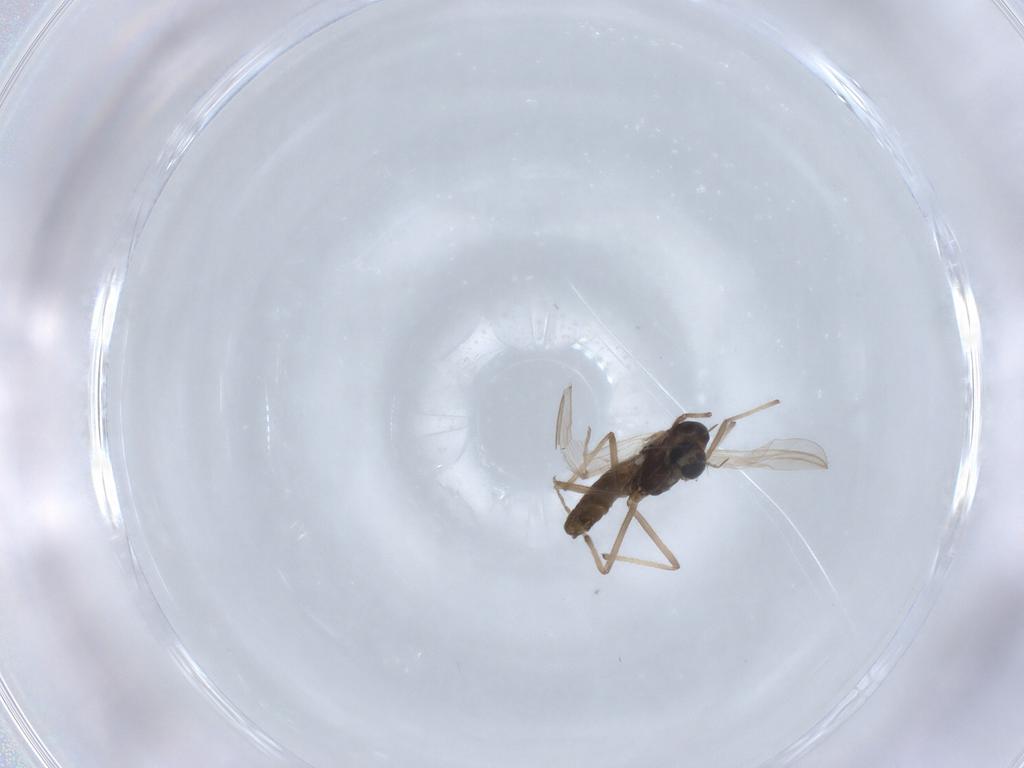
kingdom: Animalia
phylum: Arthropoda
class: Insecta
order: Diptera
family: Chironomidae
